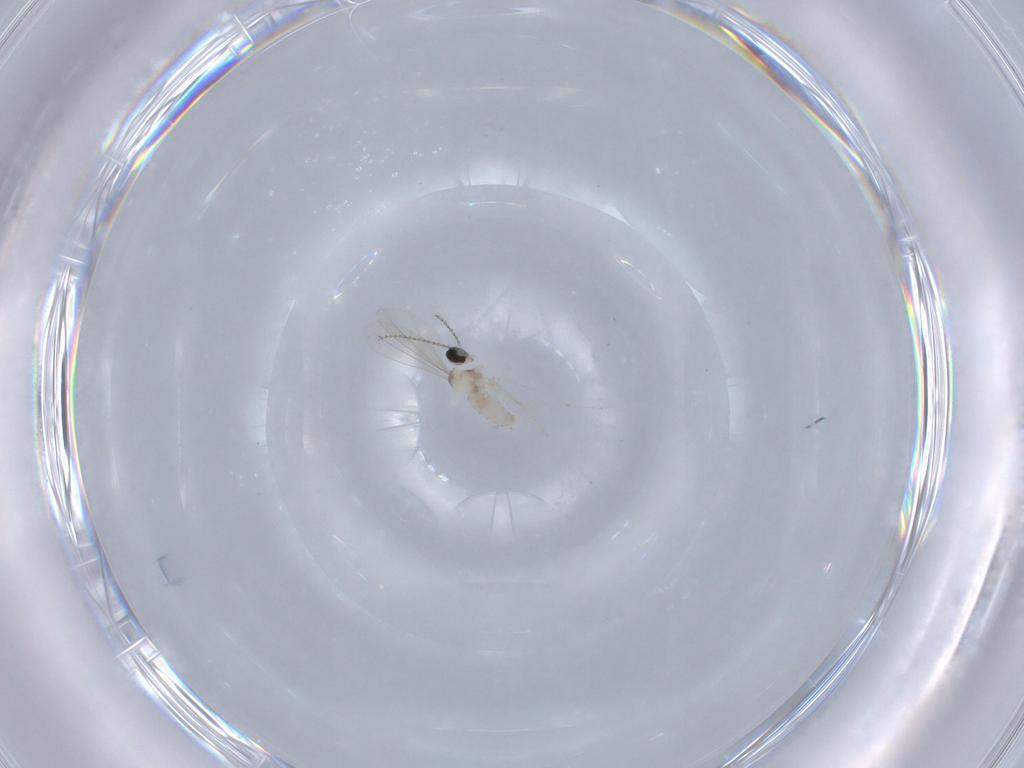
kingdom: Animalia
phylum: Arthropoda
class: Insecta
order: Diptera
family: Cecidomyiidae
